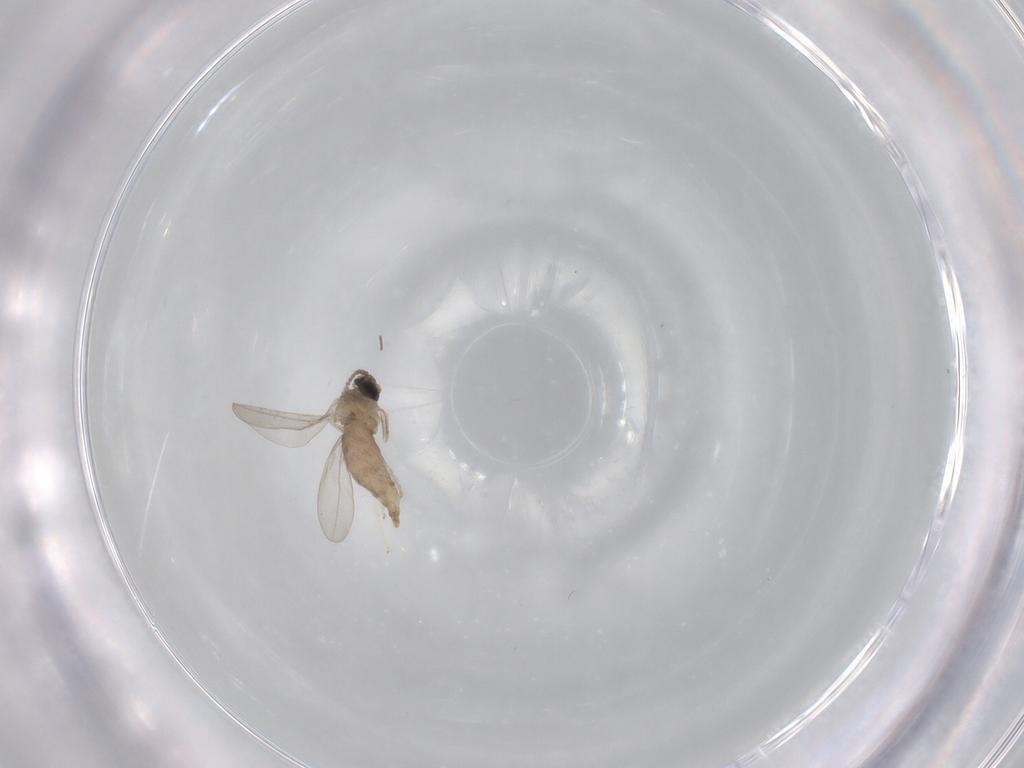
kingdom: Animalia
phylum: Arthropoda
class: Insecta
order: Diptera
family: Cecidomyiidae
